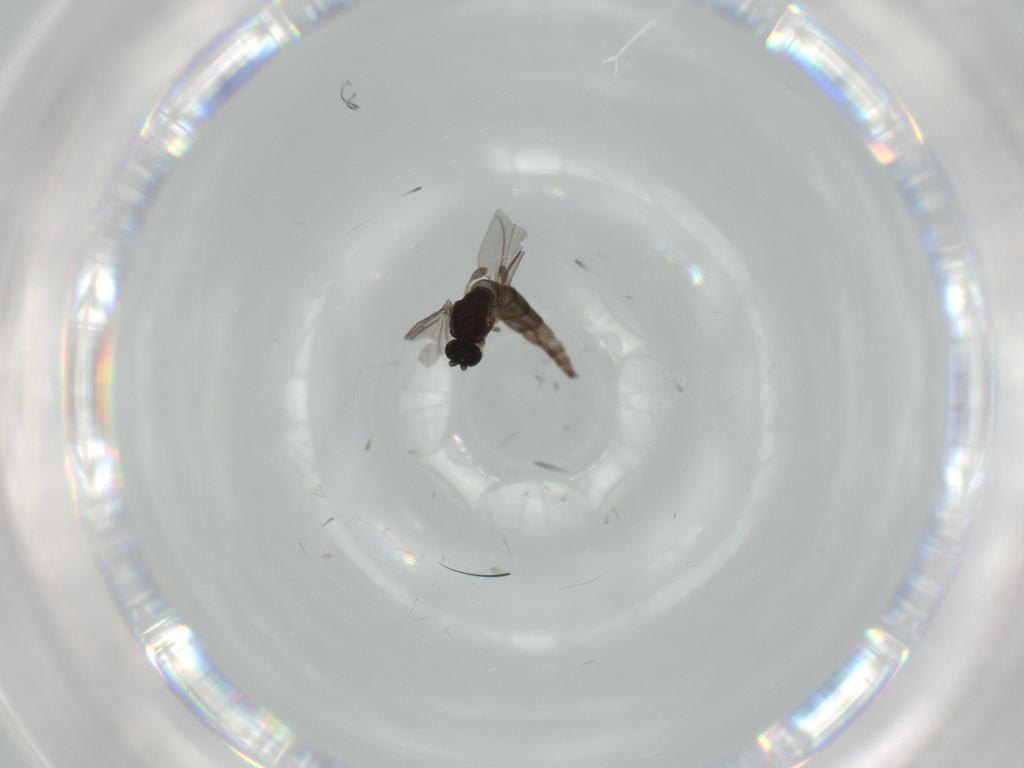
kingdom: Animalia
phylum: Arthropoda
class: Insecta
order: Diptera
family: Sciaridae
